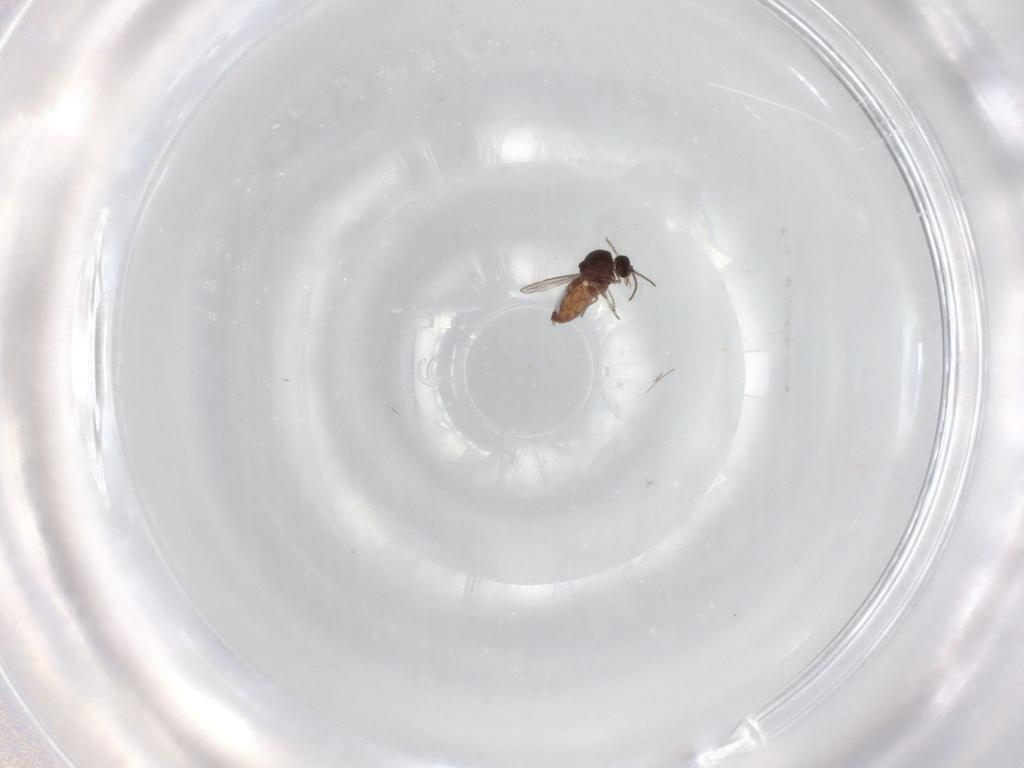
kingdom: Animalia
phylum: Arthropoda
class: Insecta
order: Diptera
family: Ceratopogonidae
